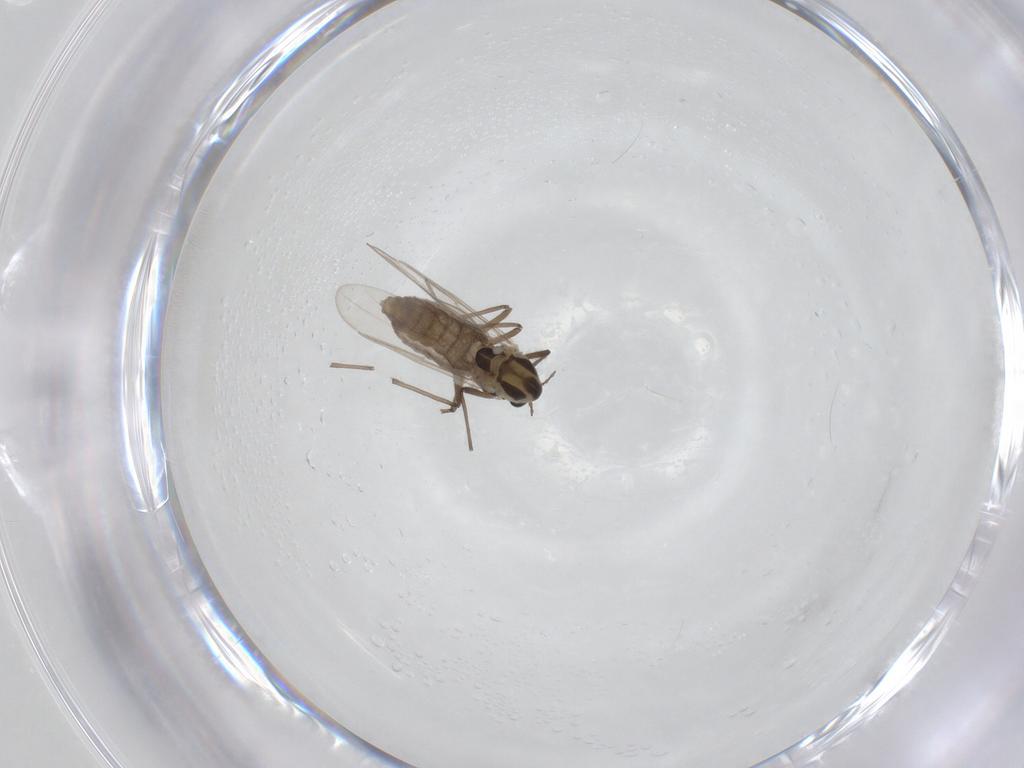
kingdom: Animalia
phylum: Arthropoda
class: Insecta
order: Diptera
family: Chironomidae
